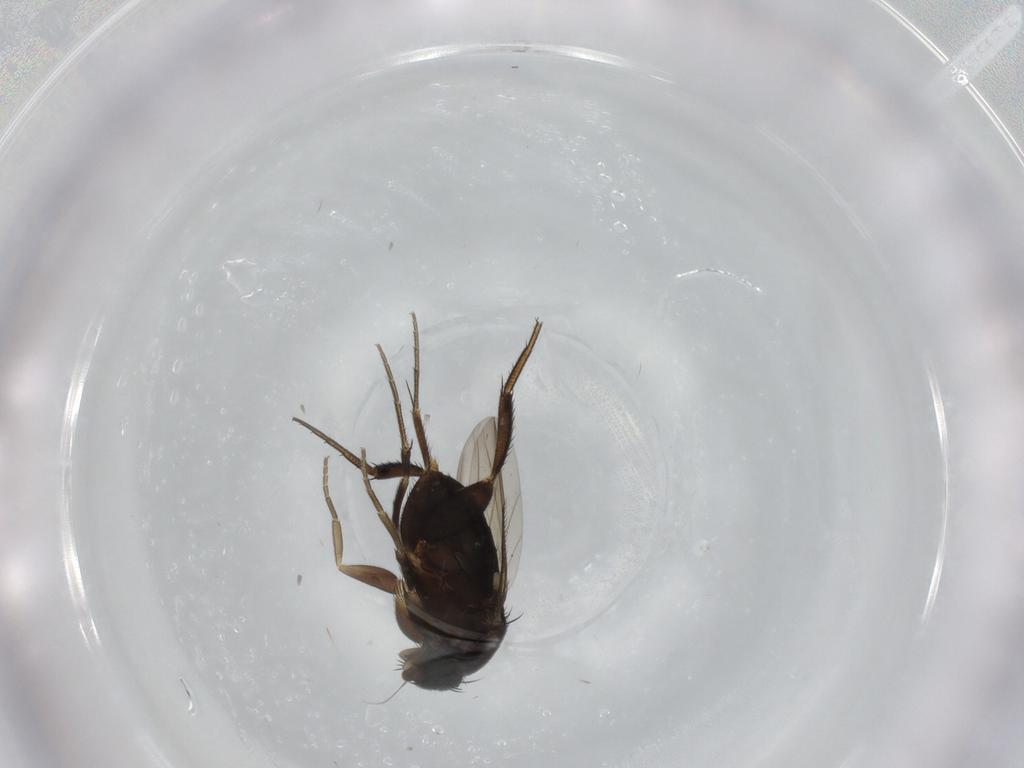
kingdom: Animalia
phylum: Arthropoda
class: Insecta
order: Diptera
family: Phoridae
